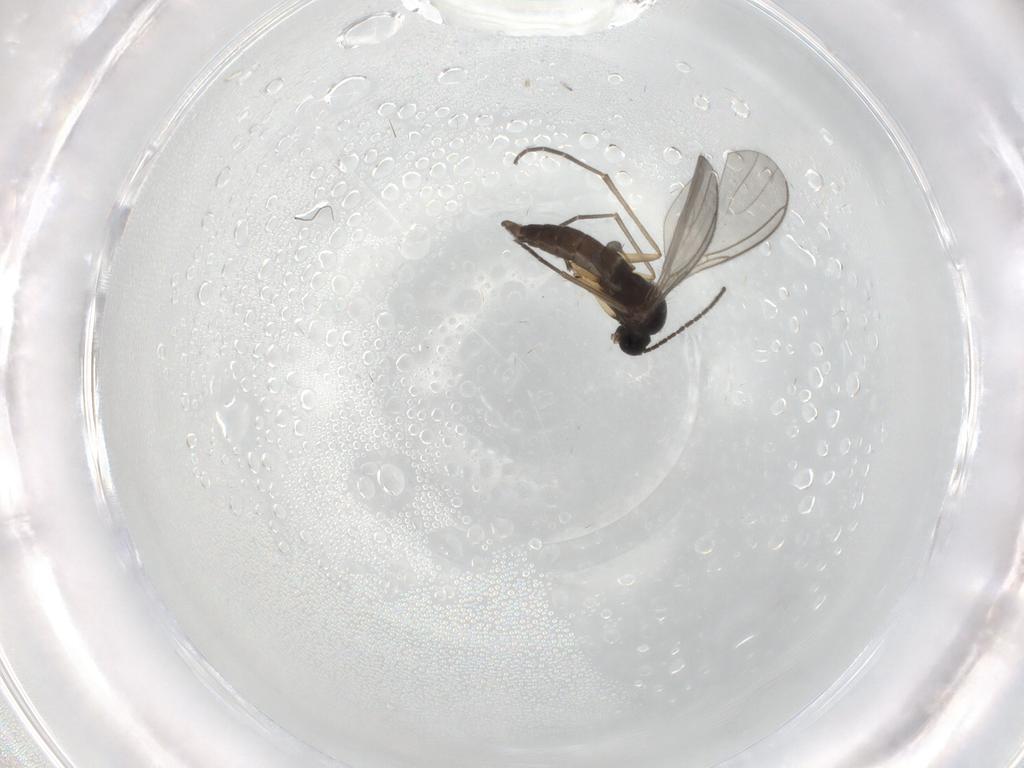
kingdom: Animalia
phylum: Arthropoda
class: Insecta
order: Diptera
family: Sciaridae
